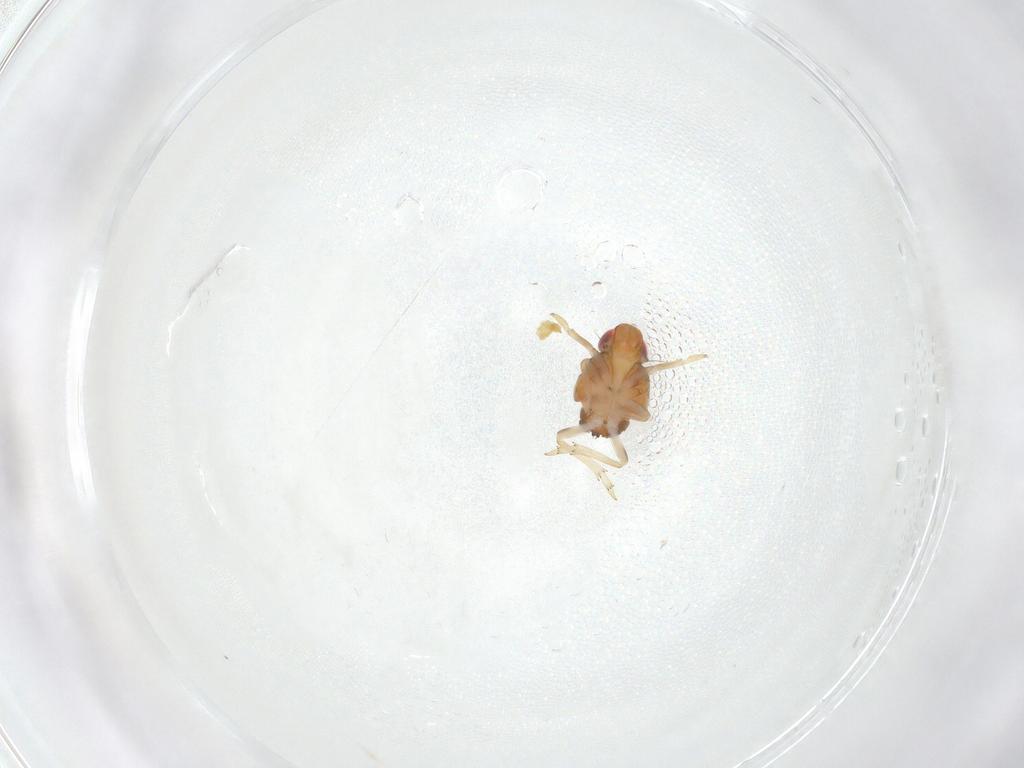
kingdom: Animalia
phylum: Arthropoda
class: Insecta
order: Hemiptera
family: Issidae
